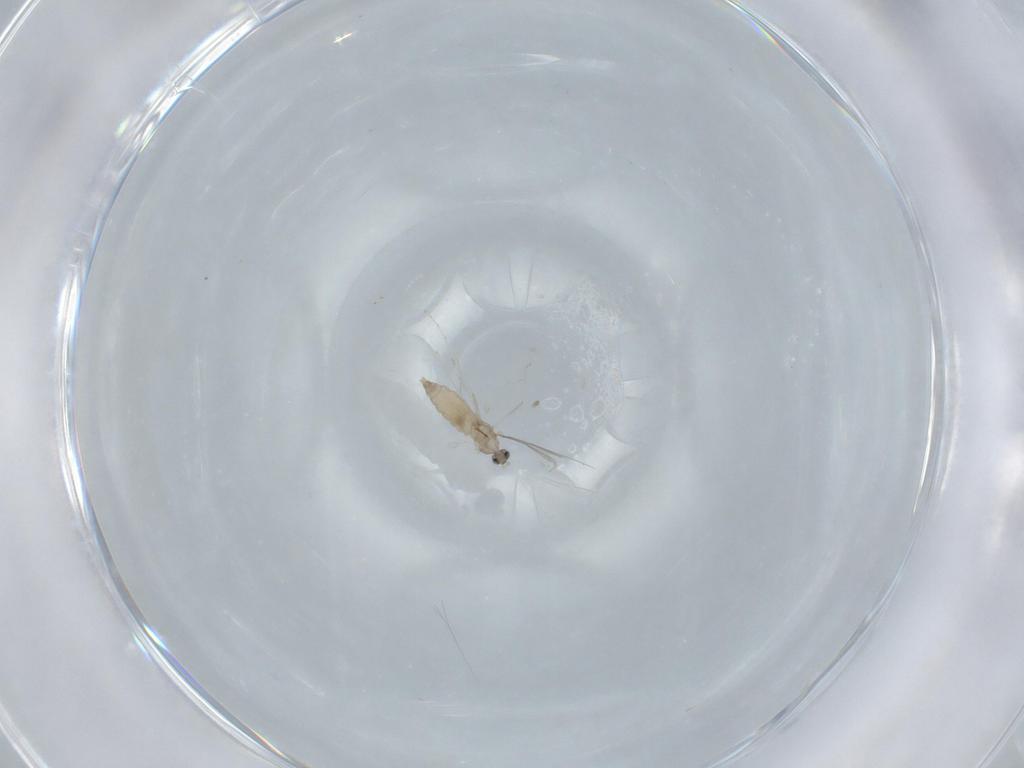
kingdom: Animalia
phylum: Arthropoda
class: Insecta
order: Diptera
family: Cecidomyiidae
